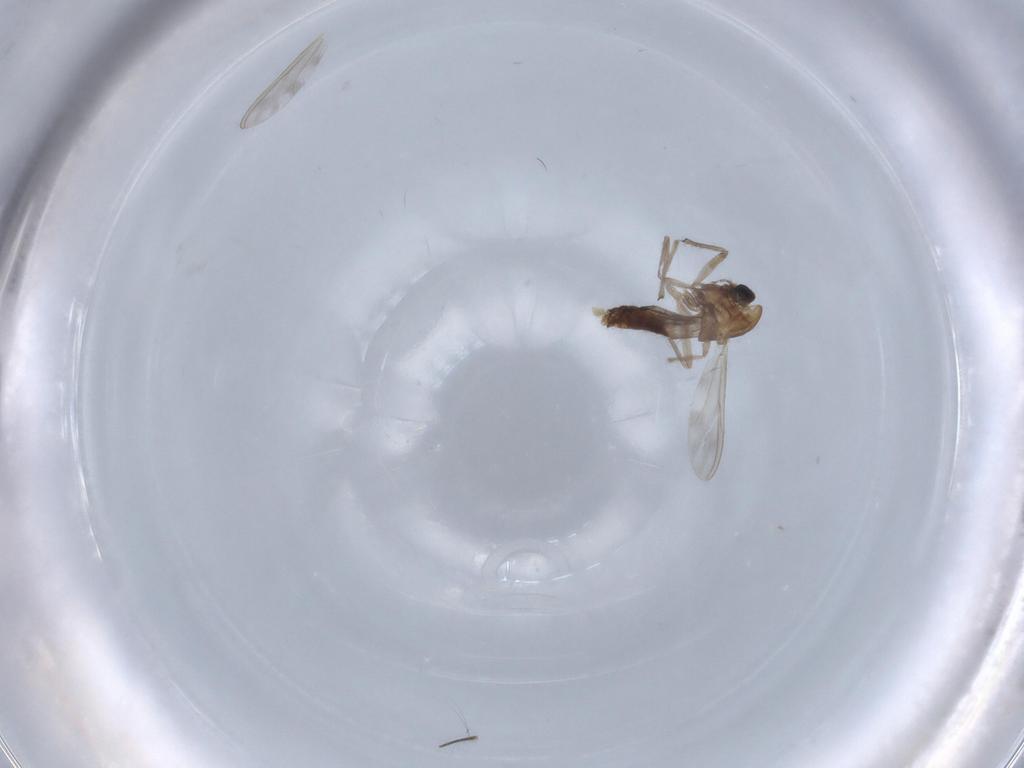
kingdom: Animalia
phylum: Arthropoda
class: Insecta
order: Diptera
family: Chironomidae
